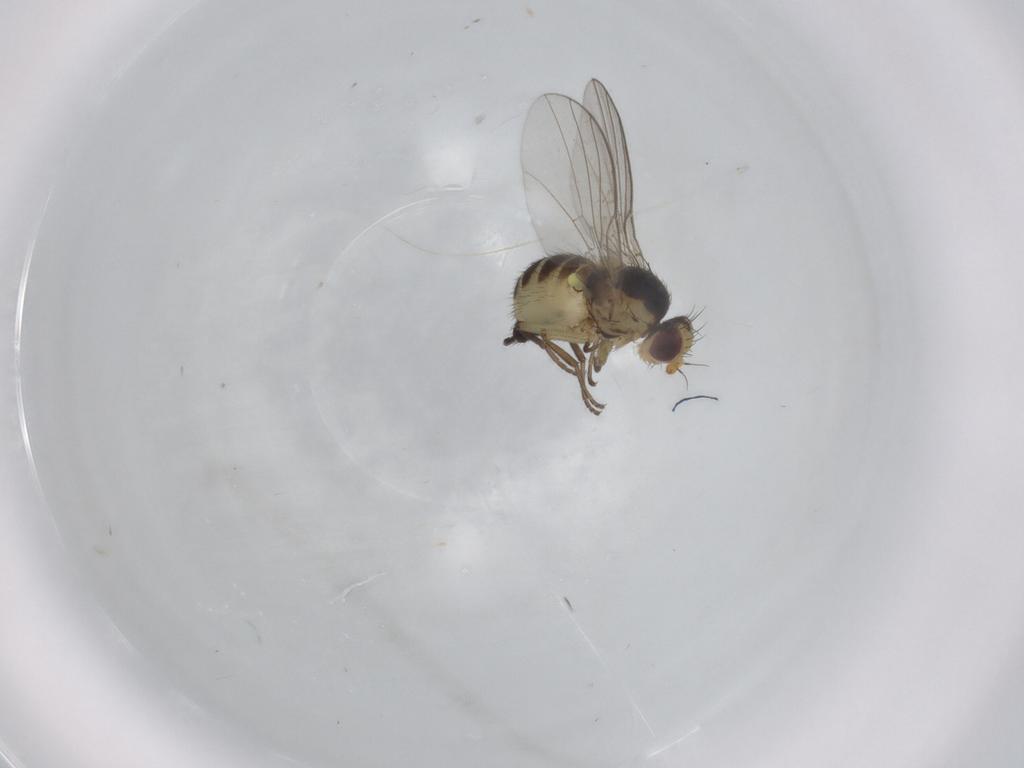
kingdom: Animalia
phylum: Arthropoda
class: Insecta
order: Diptera
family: Agromyzidae
